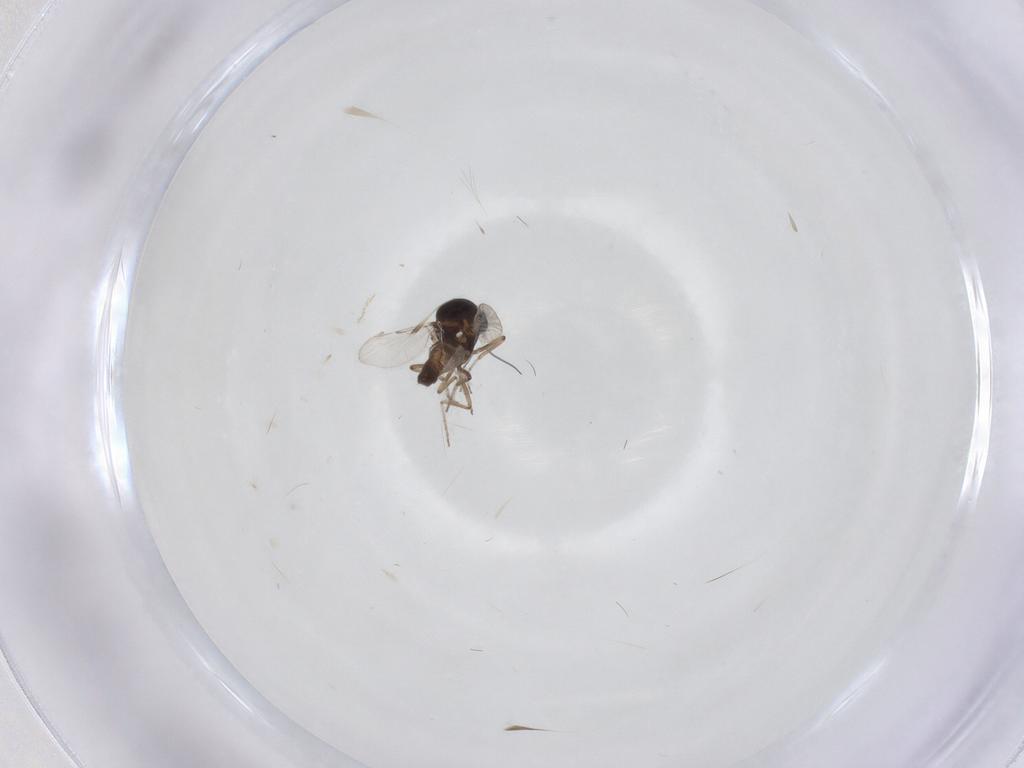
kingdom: Animalia
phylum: Arthropoda
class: Insecta
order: Diptera
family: Ceratopogonidae
